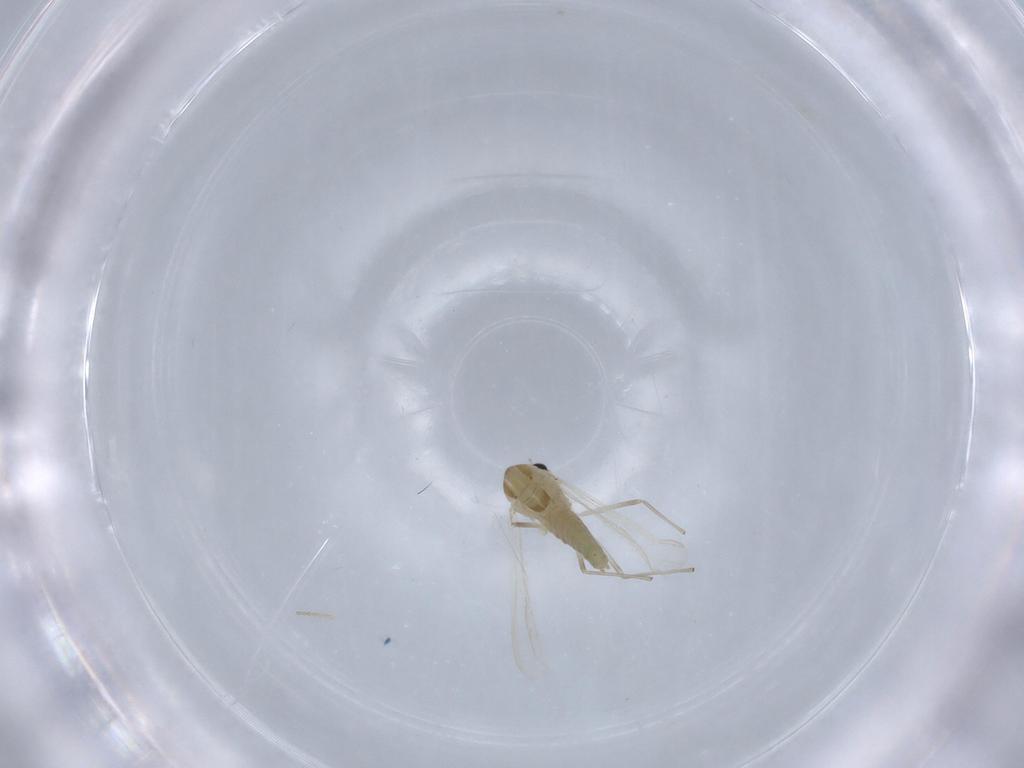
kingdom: Animalia
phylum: Arthropoda
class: Insecta
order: Diptera
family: Chironomidae
